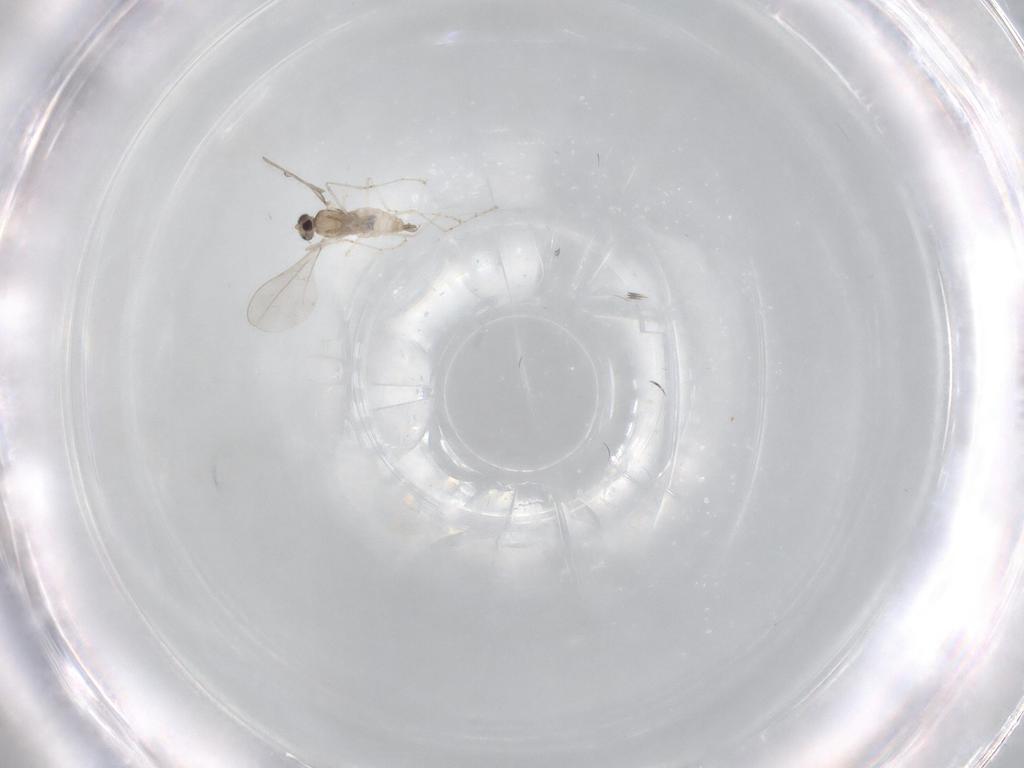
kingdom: Animalia
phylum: Arthropoda
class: Insecta
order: Diptera
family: Cecidomyiidae
